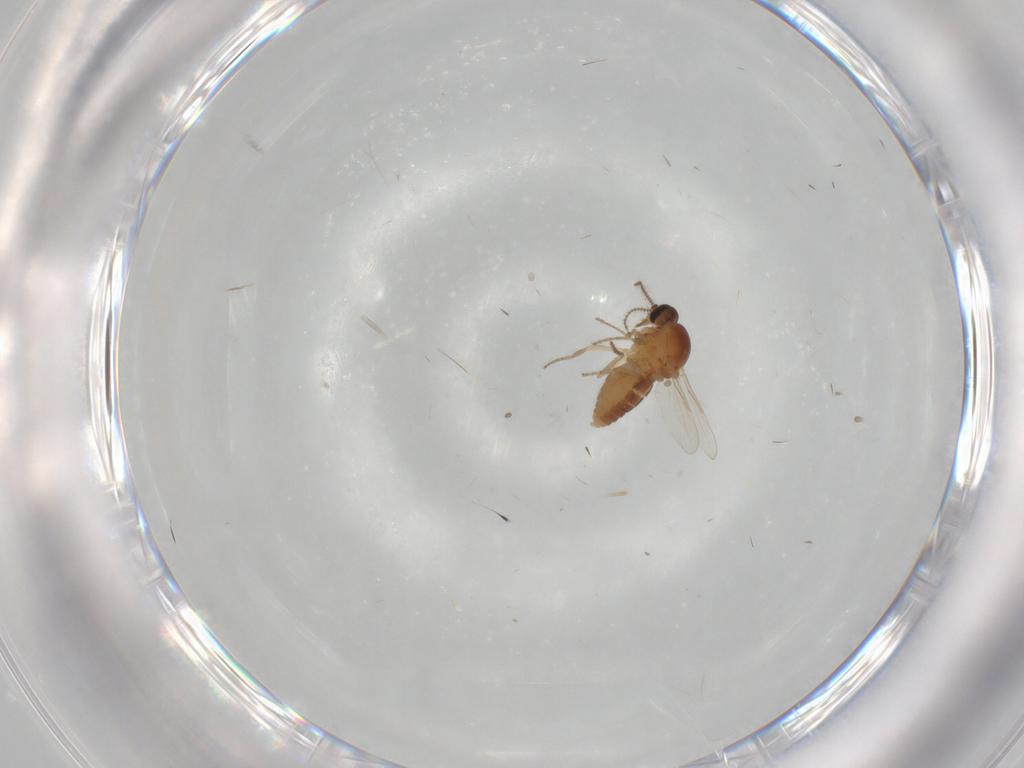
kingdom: Animalia
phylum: Arthropoda
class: Insecta
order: Diptera
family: Ceratopogonidae
